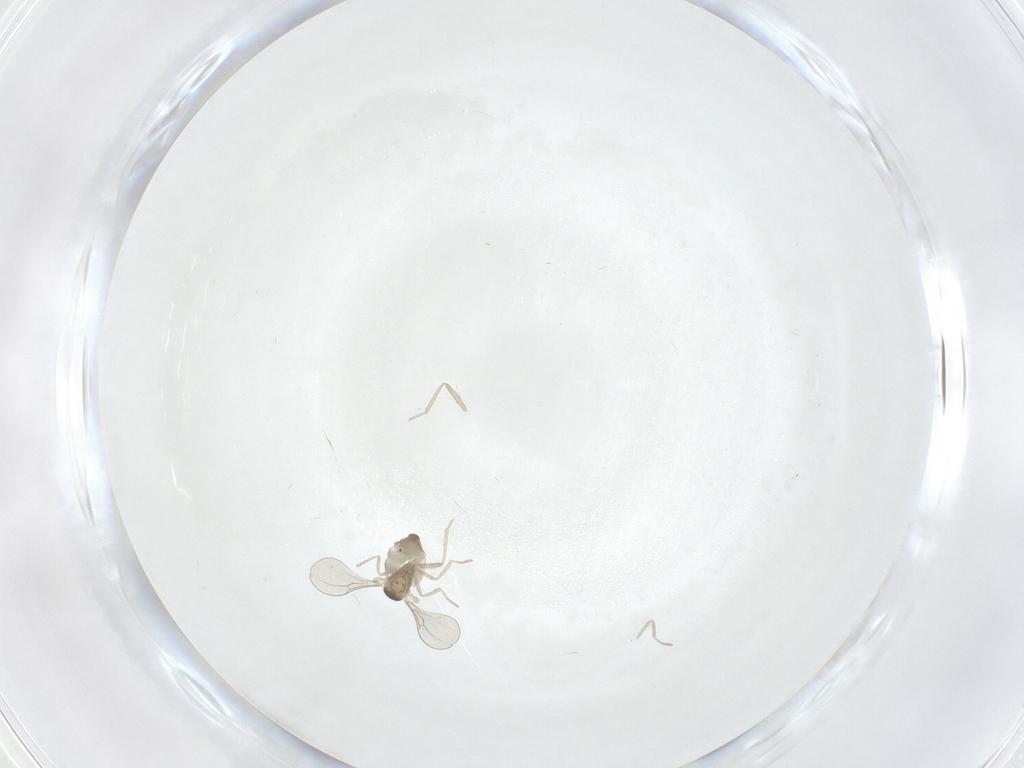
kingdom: Animalia
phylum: Arthropoda
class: Insecta
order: Diptera
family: Cecidomyiidae
